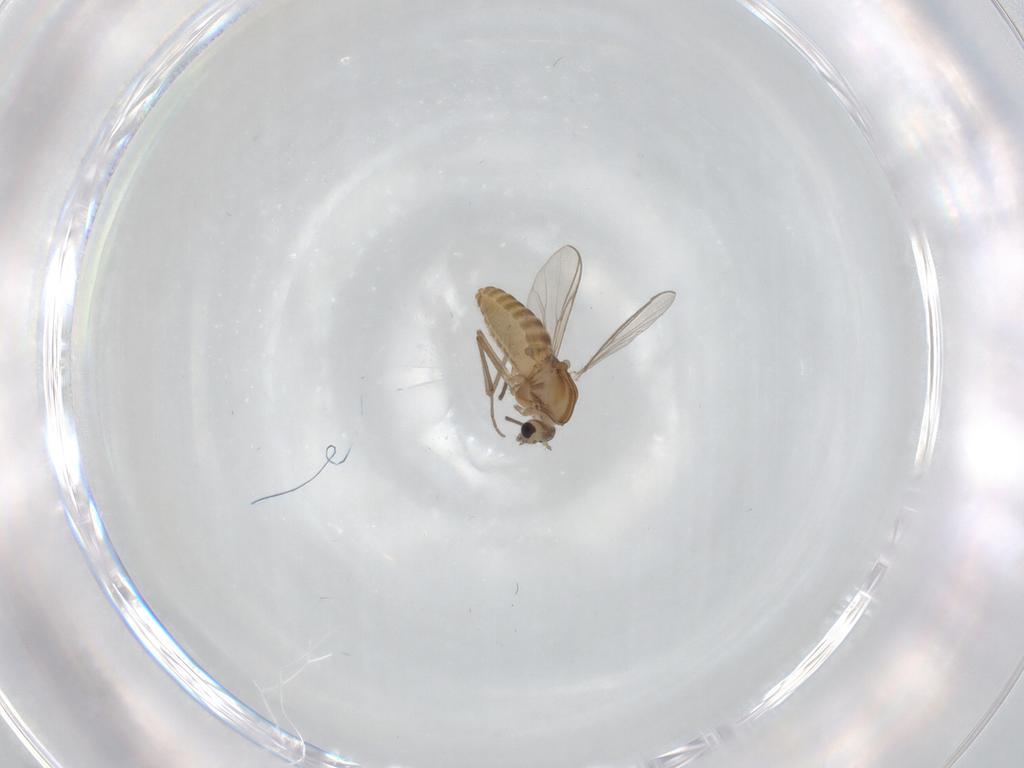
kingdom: Animalia
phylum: Arthropoda
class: Insecta
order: Diptera
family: Chironomidae
